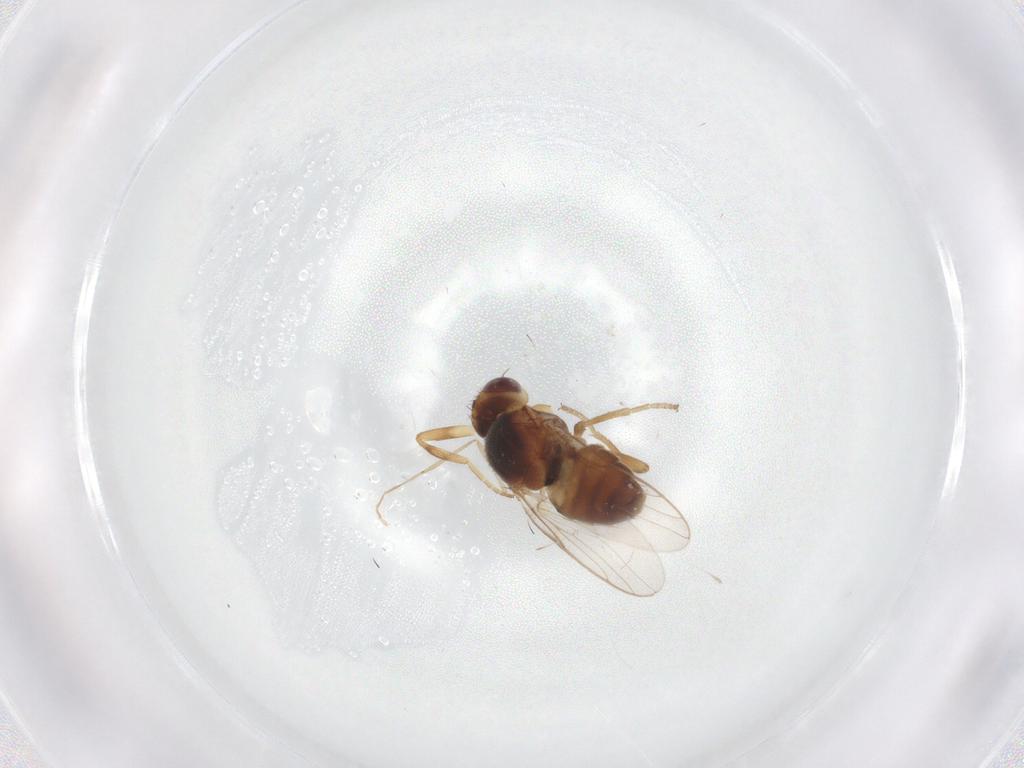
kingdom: Animalia
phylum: Arthropoda
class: Insecta
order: Diptera
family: Chloropidae
